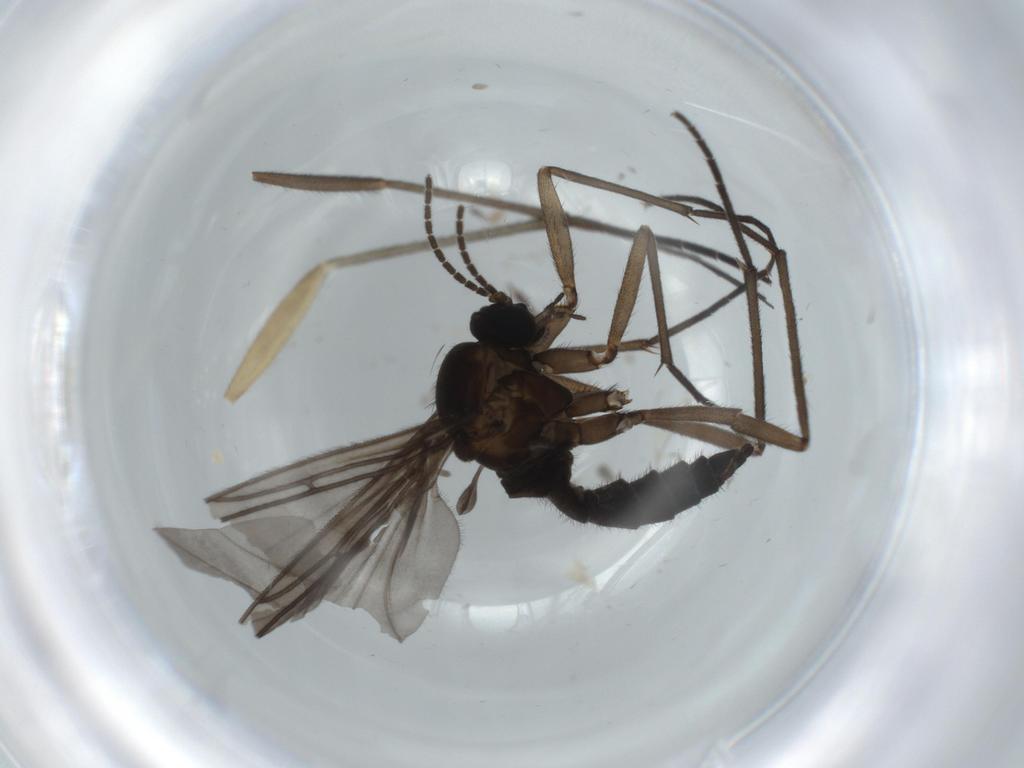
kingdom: Animalia
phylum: Arthropoda
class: Insecta
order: Diptera
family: Sciaridae
